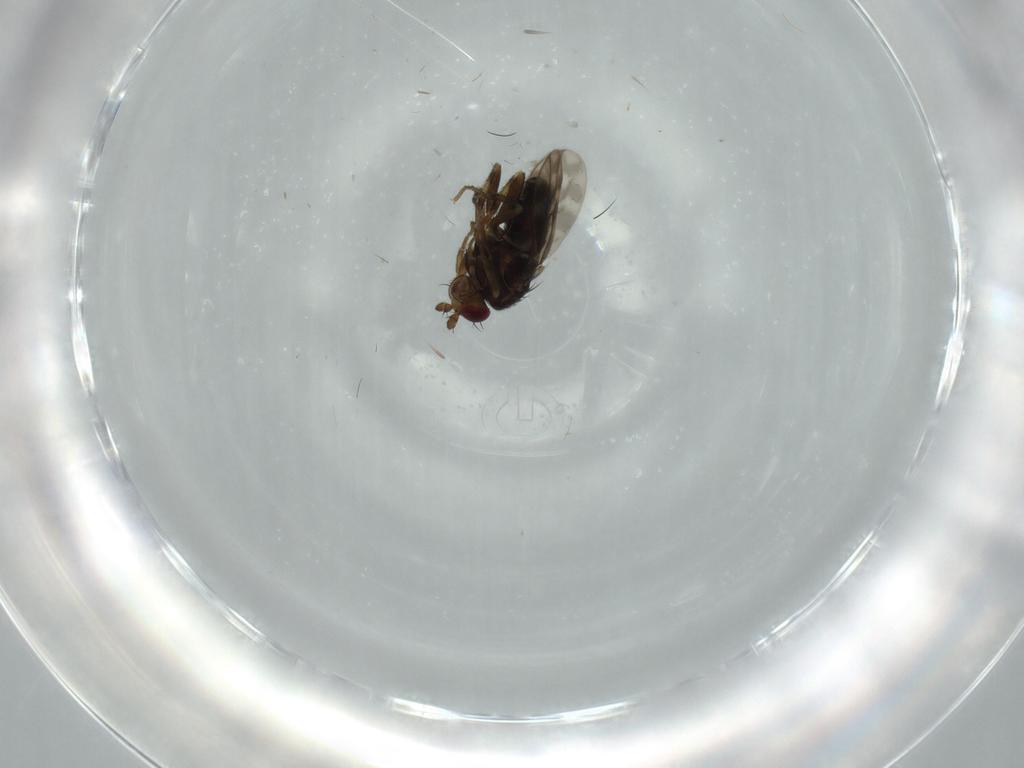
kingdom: Animalia
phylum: Arthropoda
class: Insecta
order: Diptera
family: Sphaeroceridae
